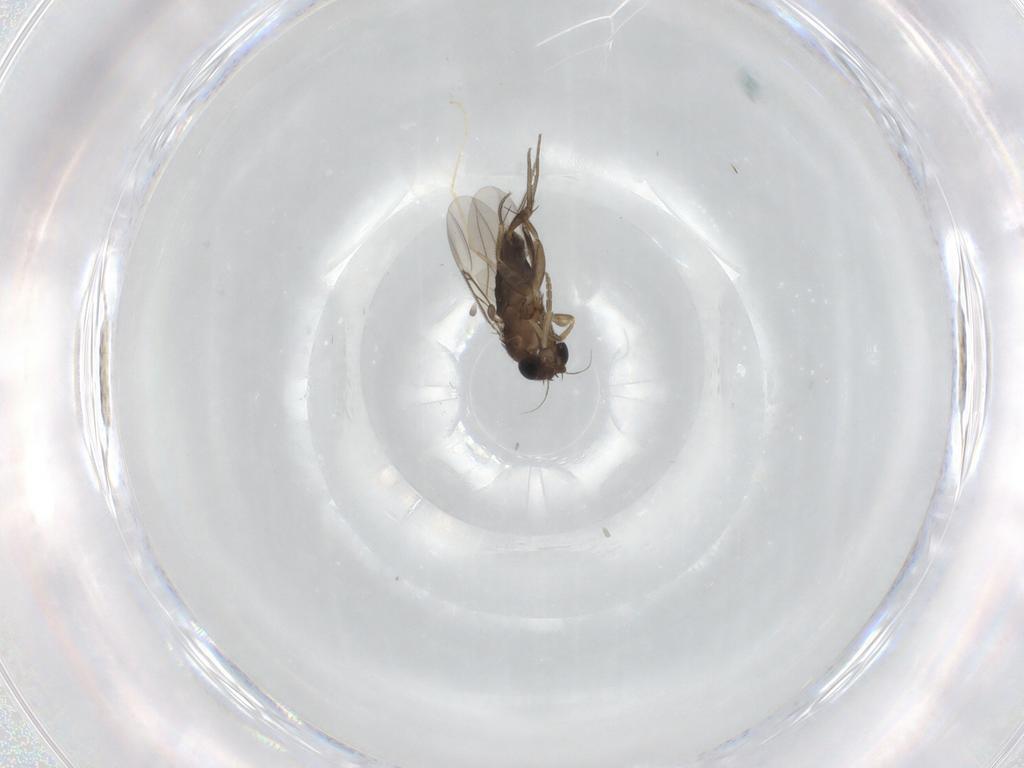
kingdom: Animalia
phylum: Arthropoda
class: Insecta
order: Diptera
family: Phoridae
